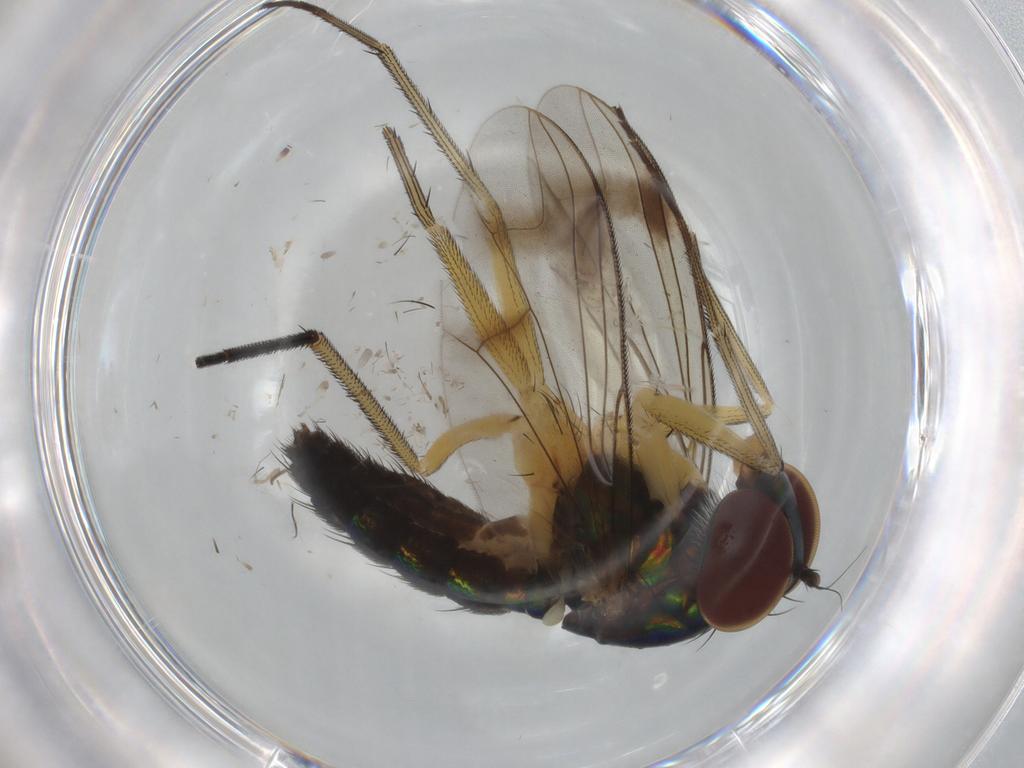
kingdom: Animalia
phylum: Arthropoda
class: Insecta
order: Diptera
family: Dolichopodidae
